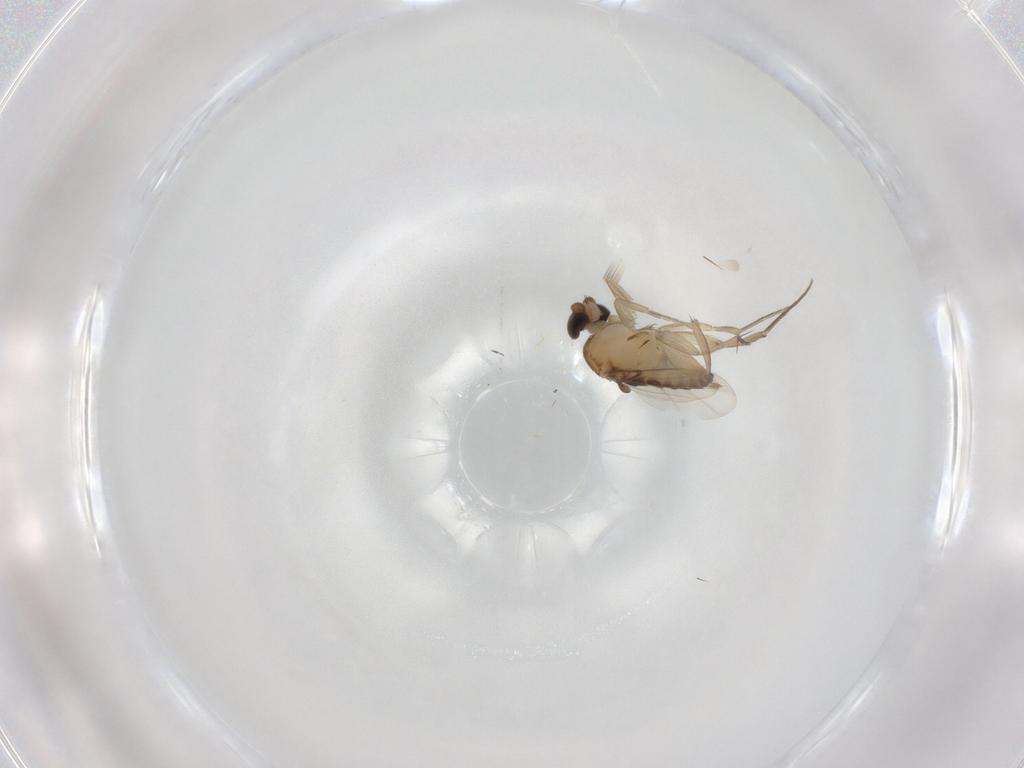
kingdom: Animalia
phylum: Arthropoda
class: Insecta
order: Diptera
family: Phoridae
